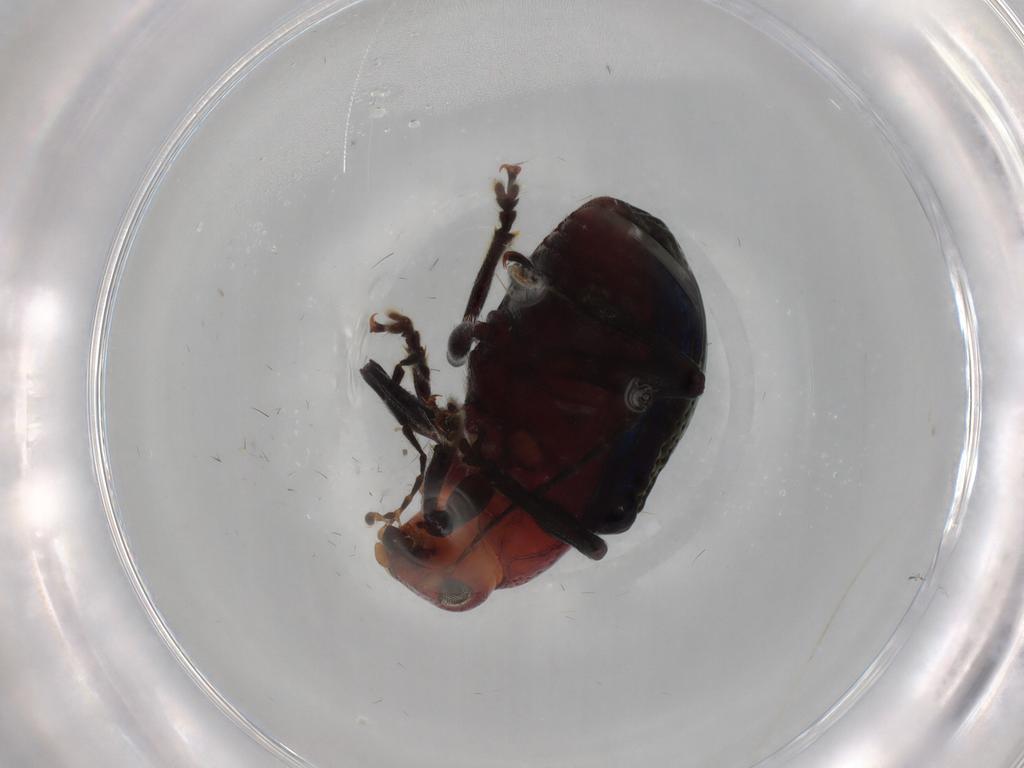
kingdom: Animalia
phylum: Arthropoda
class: Insecta
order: Coleoptera
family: Chrysomelidae
